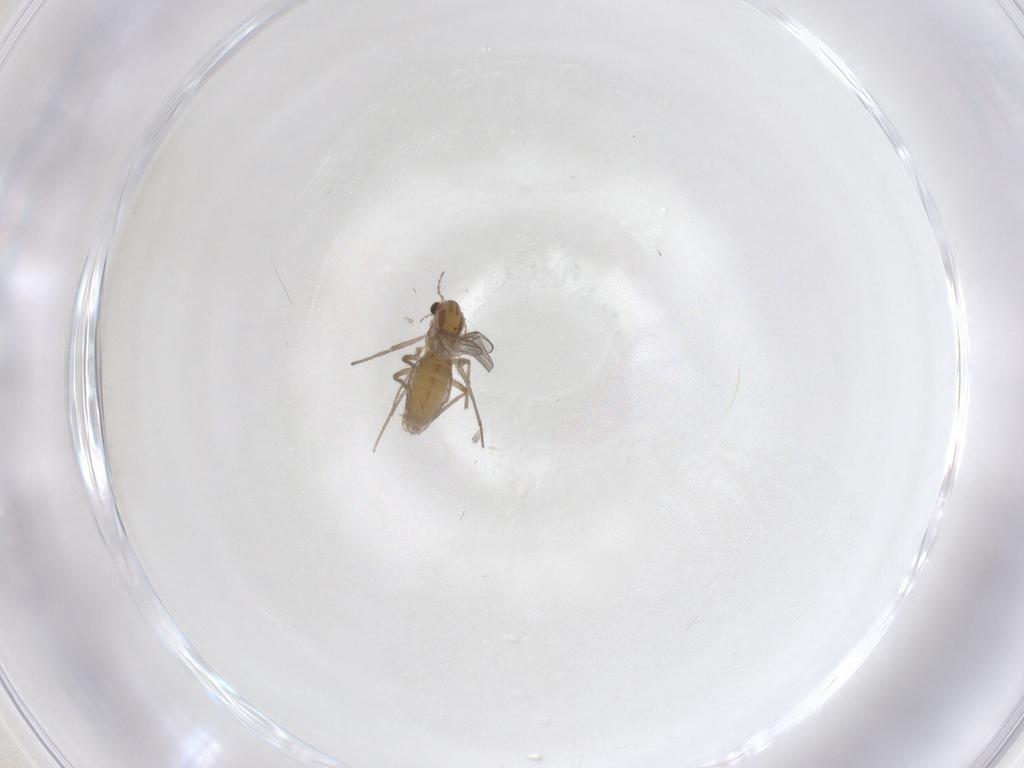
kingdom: Animalia
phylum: Arthropoda
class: Insecta
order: Diptera
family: Chironomidae
